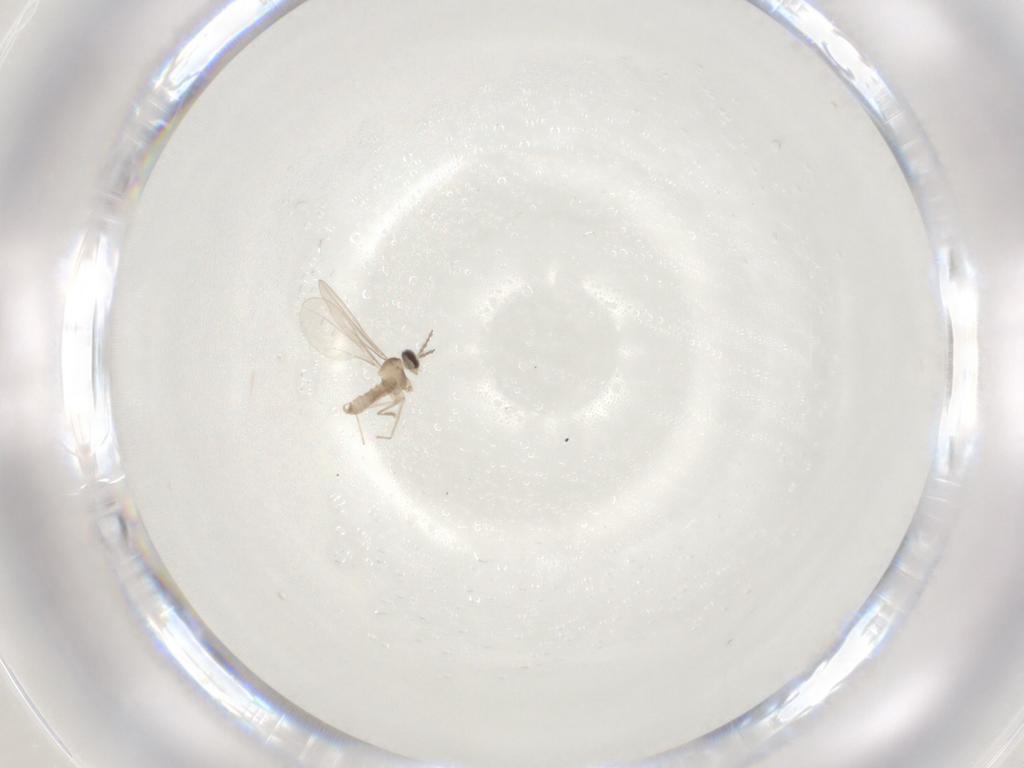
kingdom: Animalia
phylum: Arthropoda
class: Insecta
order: Diptera
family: Cecidomyiidae
